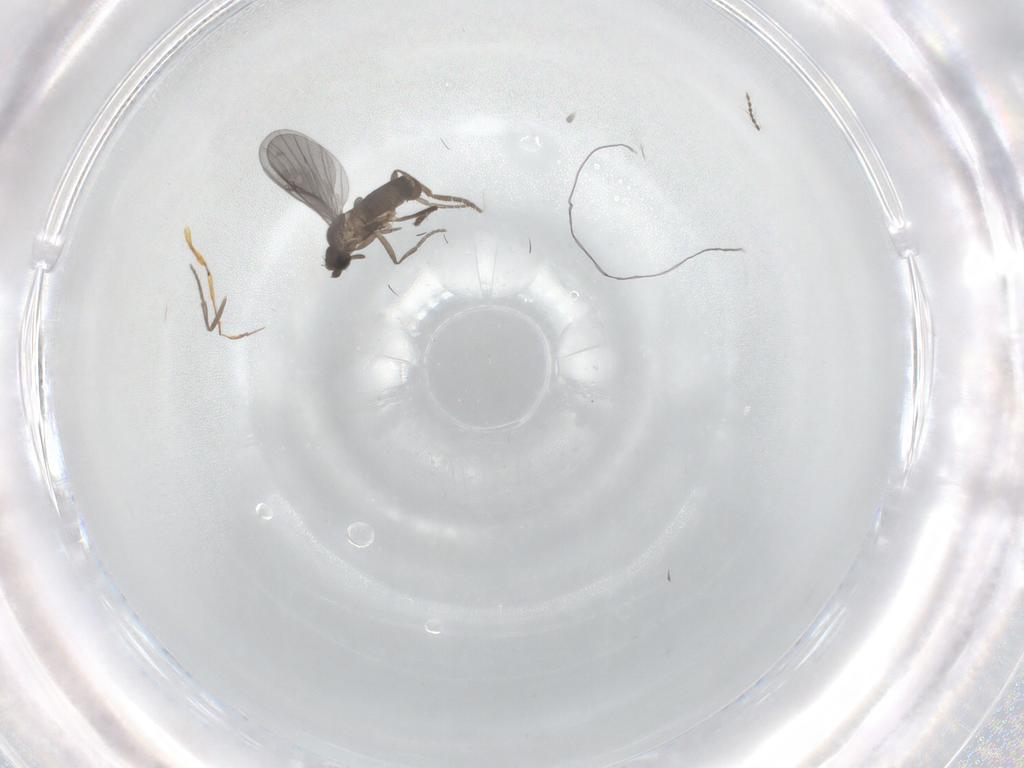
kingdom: Animalia
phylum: Arthropoda
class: Insecta
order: Diptera
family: Phoridae
